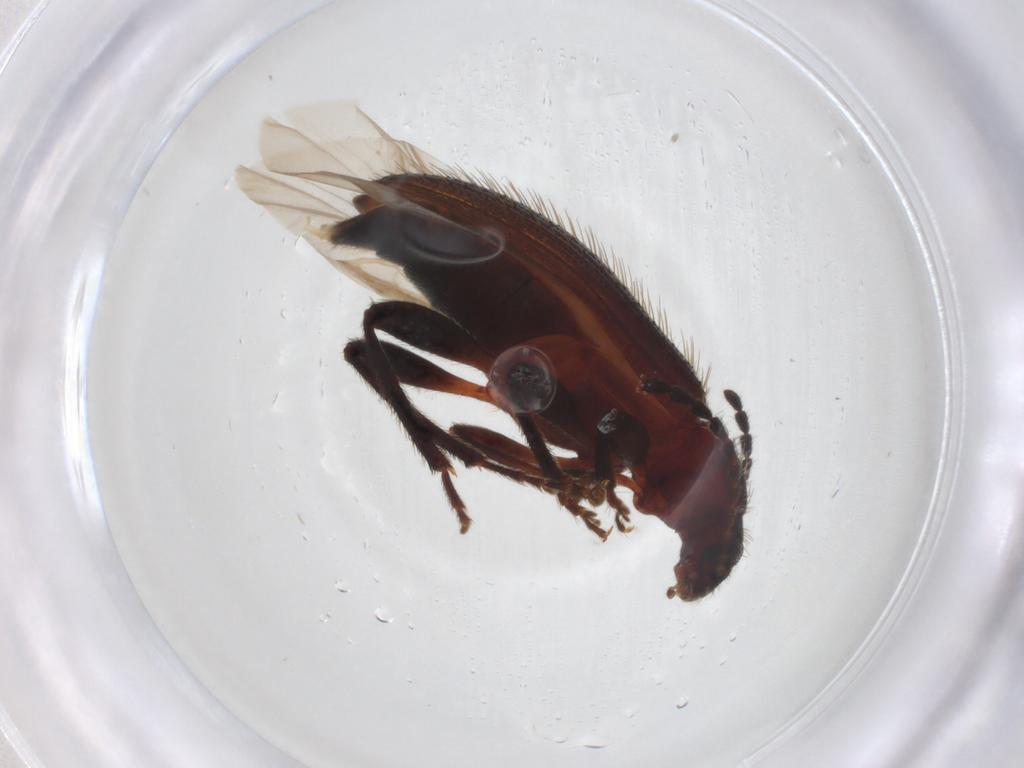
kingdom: Animalia
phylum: Arthropoda
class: Insecta
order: Coleoptera
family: Tenebrionidae
